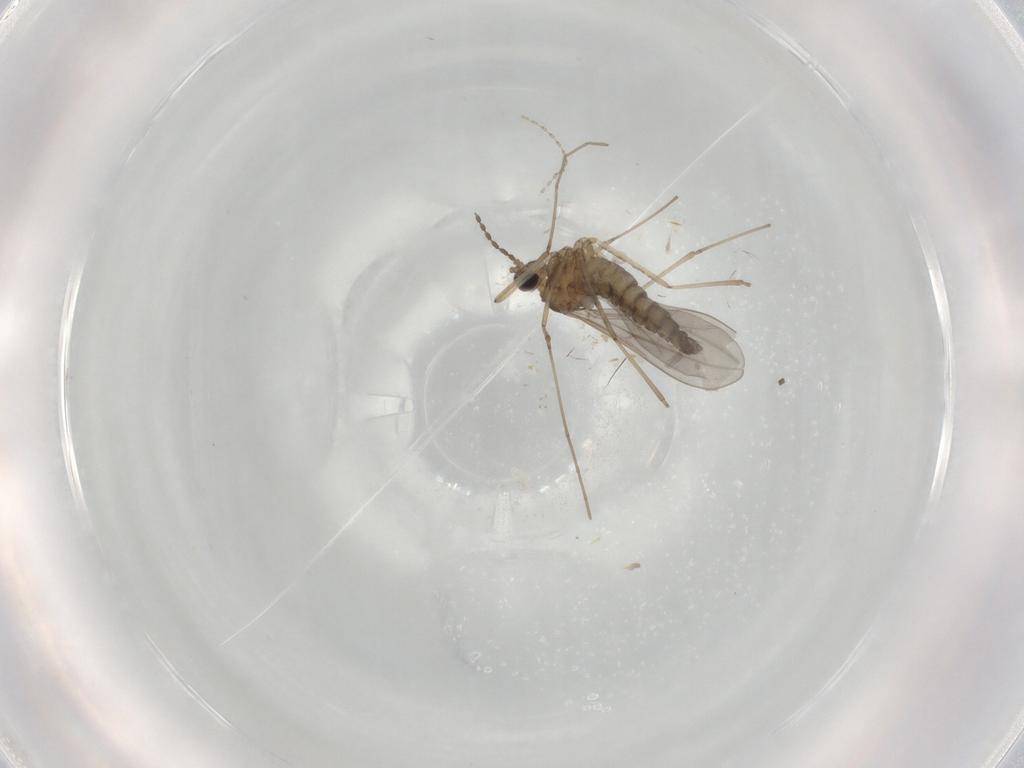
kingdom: Animalia
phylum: Arthropoda
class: Insecta
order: Diptera
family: Cecidomyiidae
